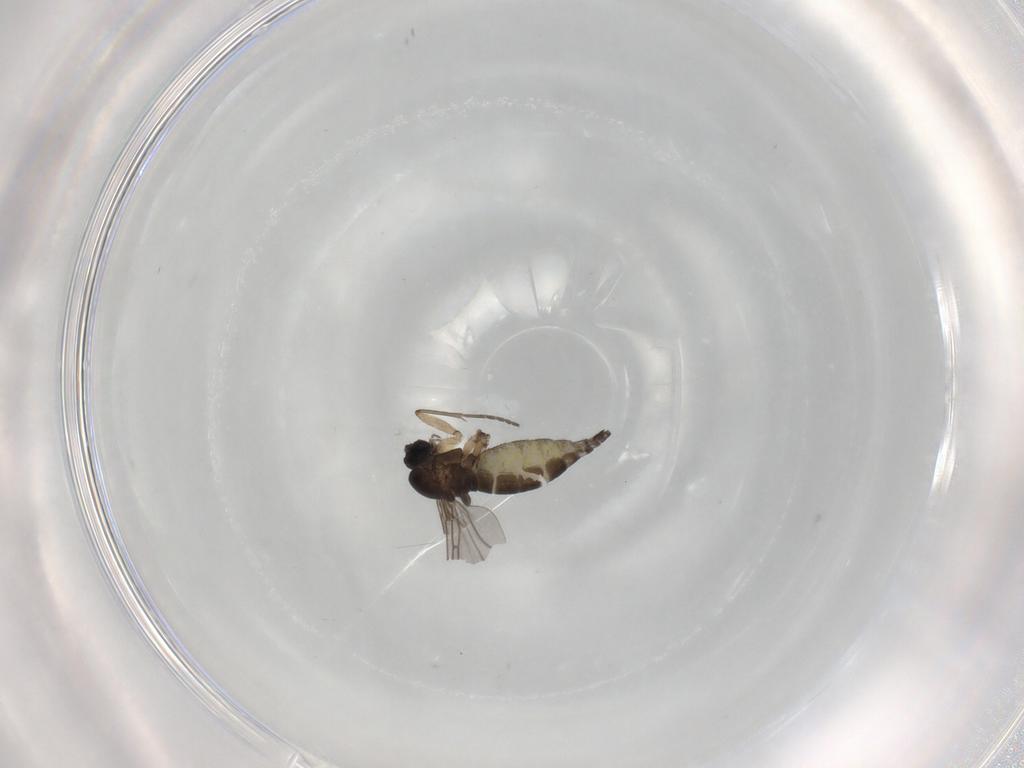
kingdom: Animalia
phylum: Arthropoda
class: Insecta
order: Diptera
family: Sciaridae
